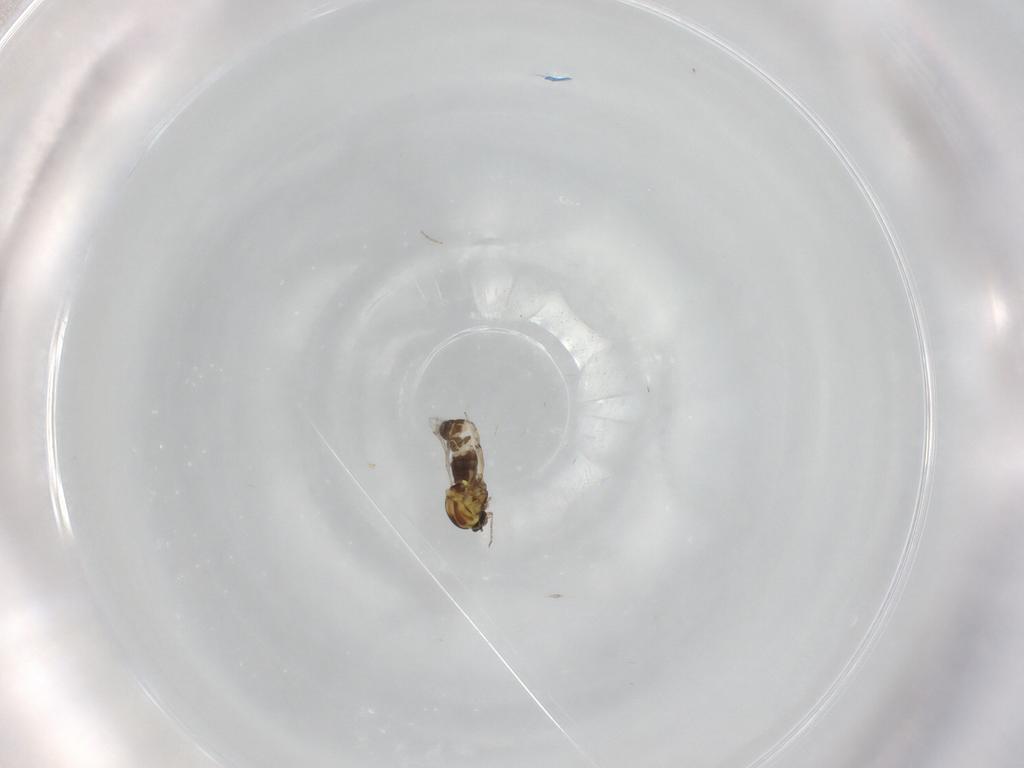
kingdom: Animalia
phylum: Arthropoda
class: Insecta
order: Diptera
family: Ceratopogonidae
